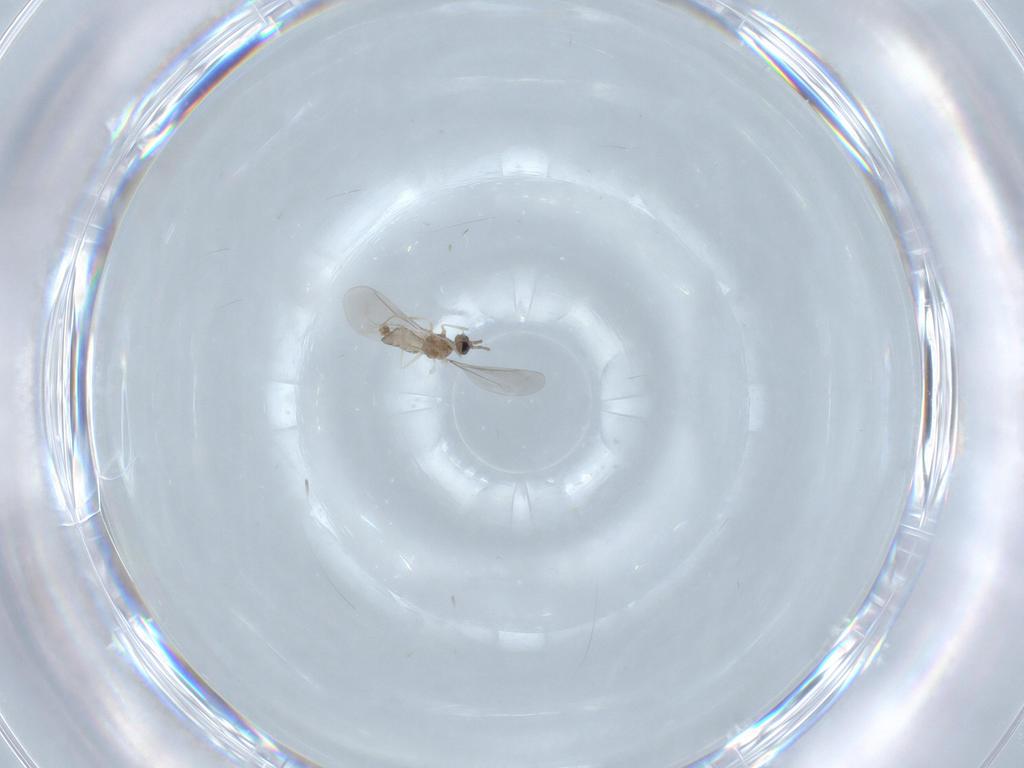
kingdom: Animalia
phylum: Arthropoda
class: Insecta
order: Diptera
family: Cecidomyiidae
